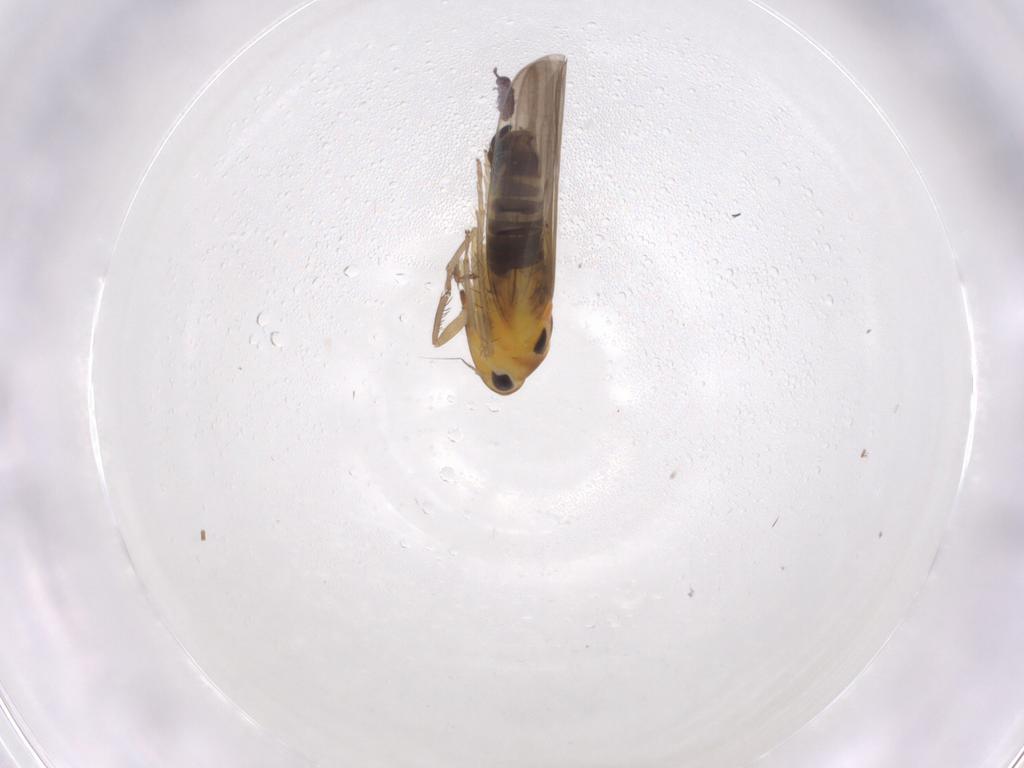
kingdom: Animalia
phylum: Arthropoda
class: Insecta
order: Hemiptera
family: Cicadellidae
